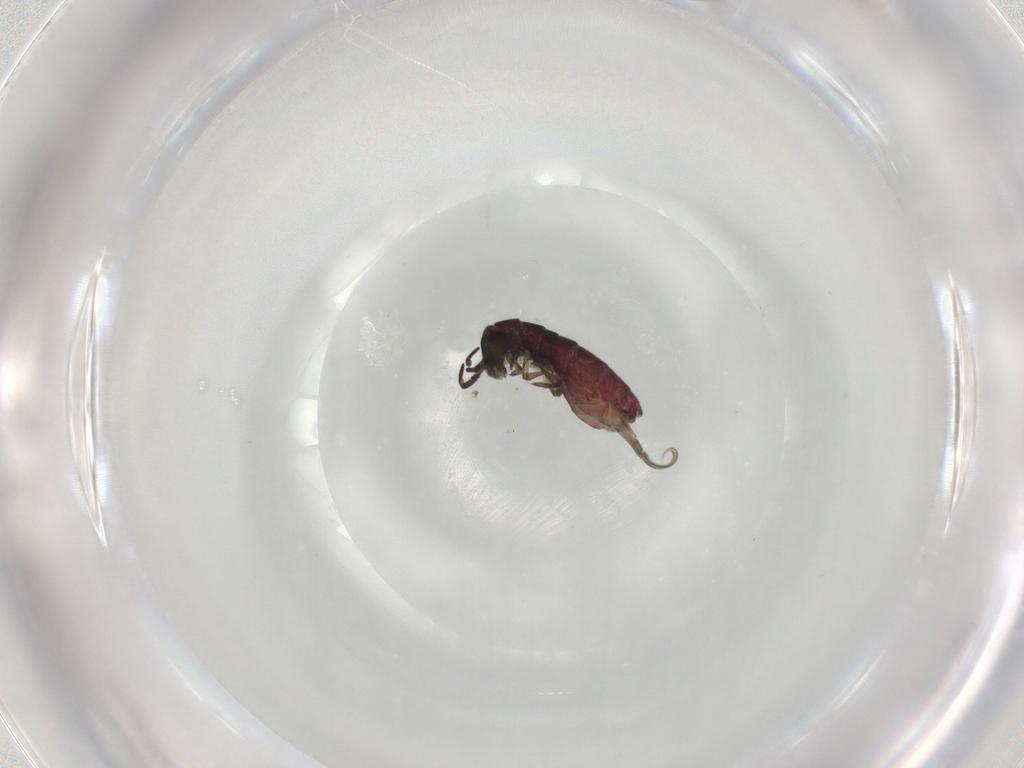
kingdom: Animalia
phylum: Arthropoda
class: Collembola
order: Entomobryomorpha
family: Isotomidae
